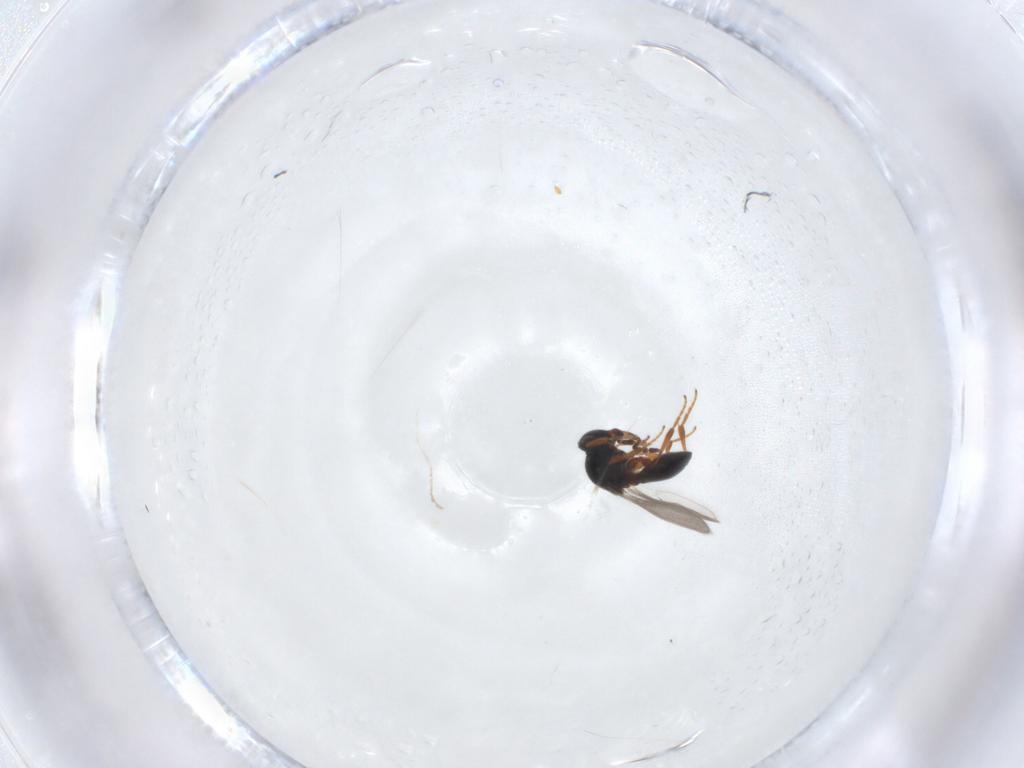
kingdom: Animalia
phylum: Arthropoda
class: Insecta
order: Hymenoptera
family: Platygastridae
